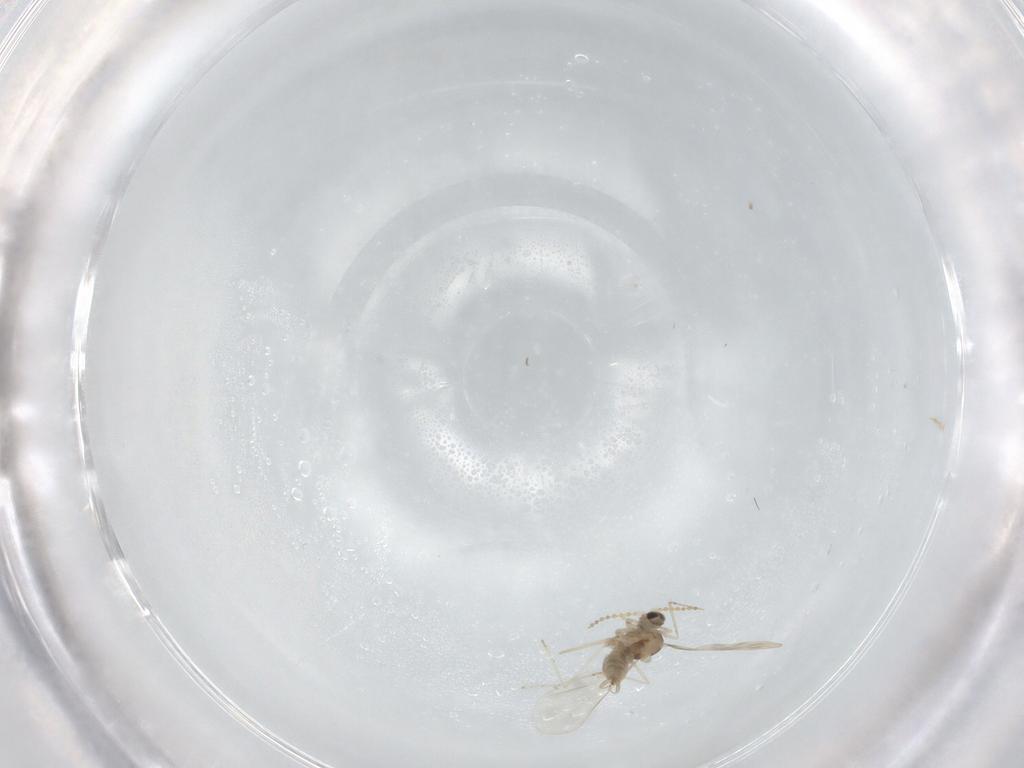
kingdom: Animalia
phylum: Arthropoda
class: Insecta
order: Diptera
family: Cecidomyiidae
